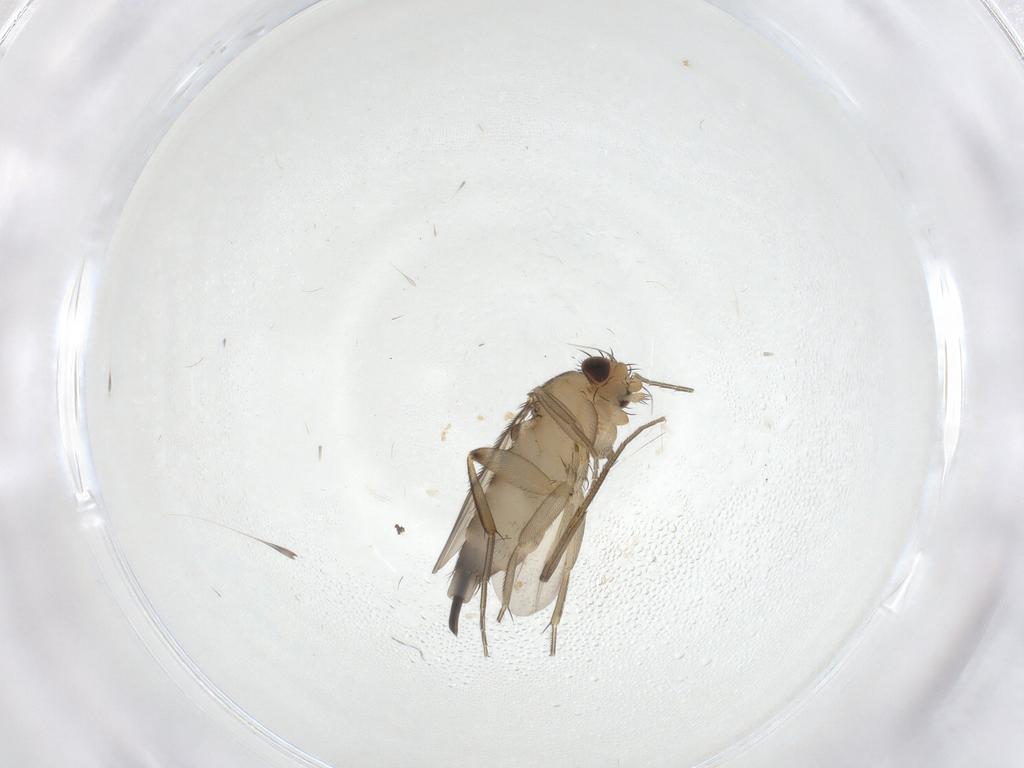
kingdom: Animalia
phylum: Arthropoda
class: Insecta
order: Diptera
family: Phoridae
